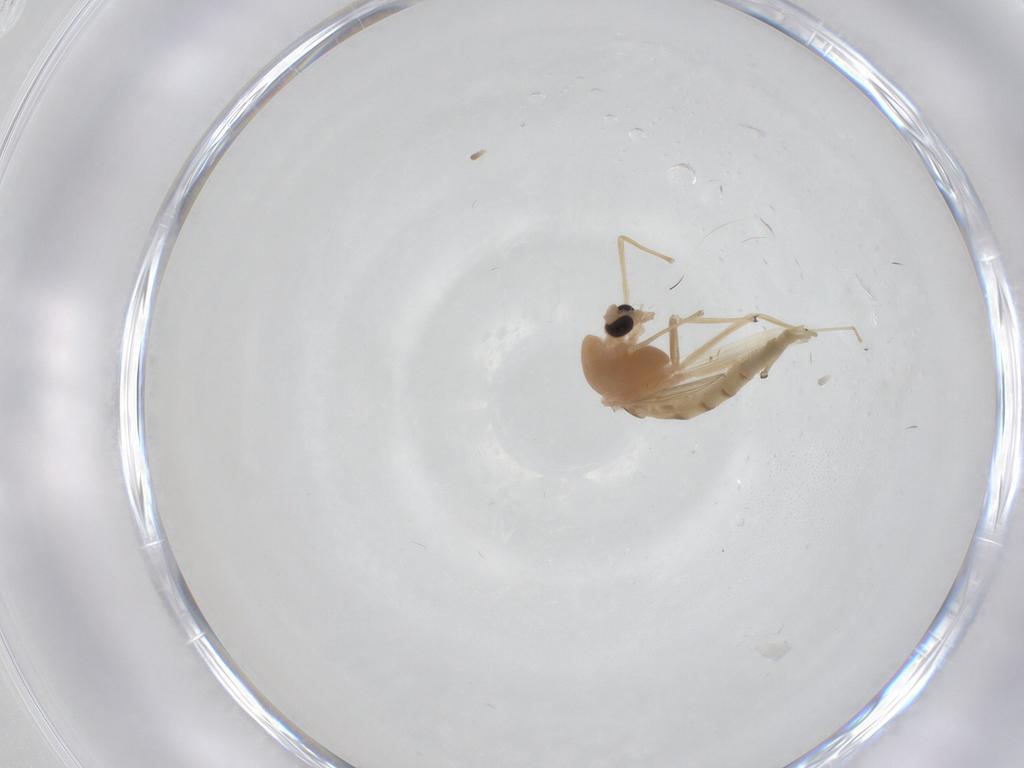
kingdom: Animalia
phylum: Arthropoda
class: Insecta
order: Diptera
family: Chironomidae
